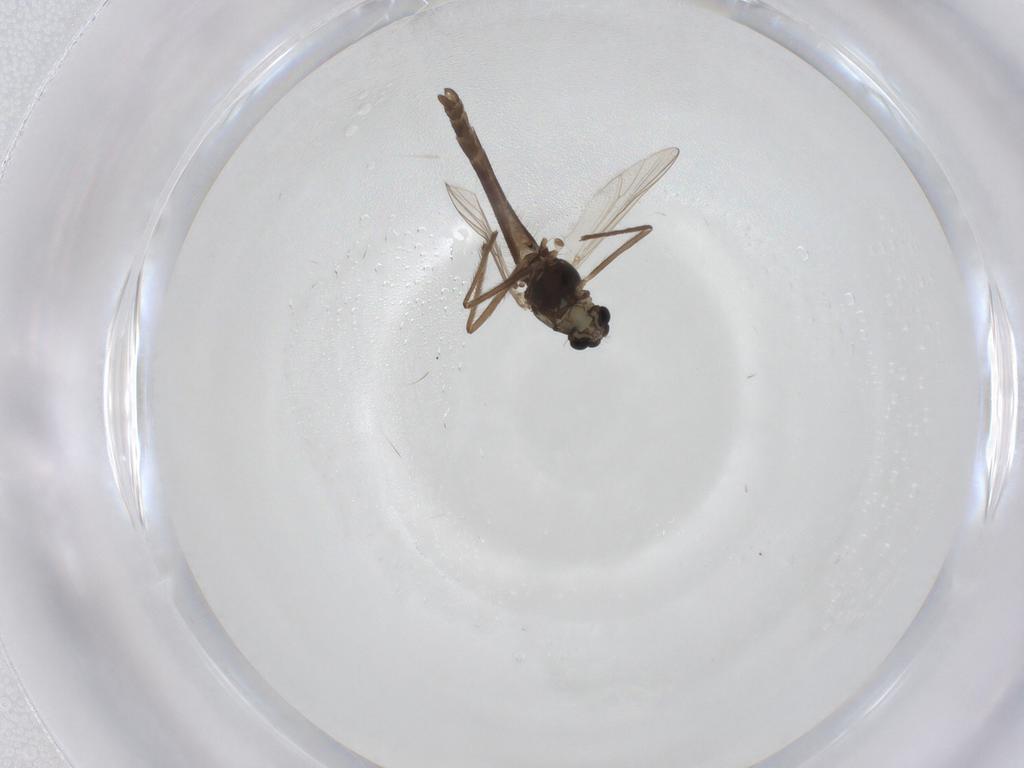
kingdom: Animalia
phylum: Arthropoda
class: Insecta
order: Diptera
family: Chironomidae
